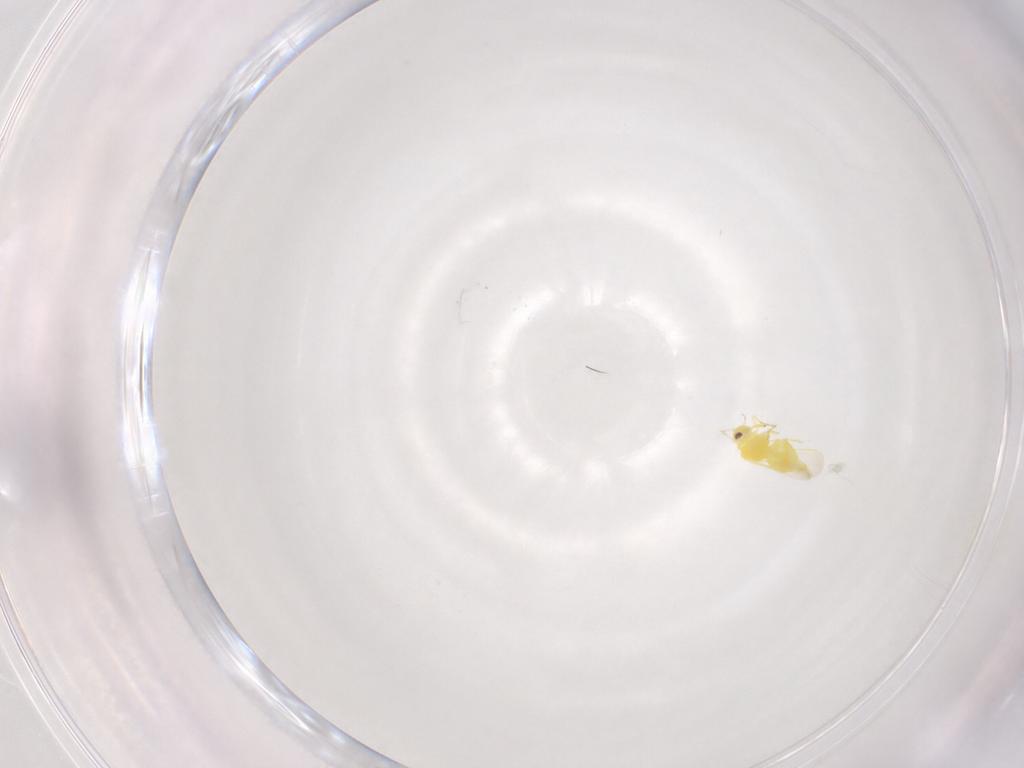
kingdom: Animalia
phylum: Arthropoda
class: Insecta
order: Hemiptera
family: Aleyrodidae
